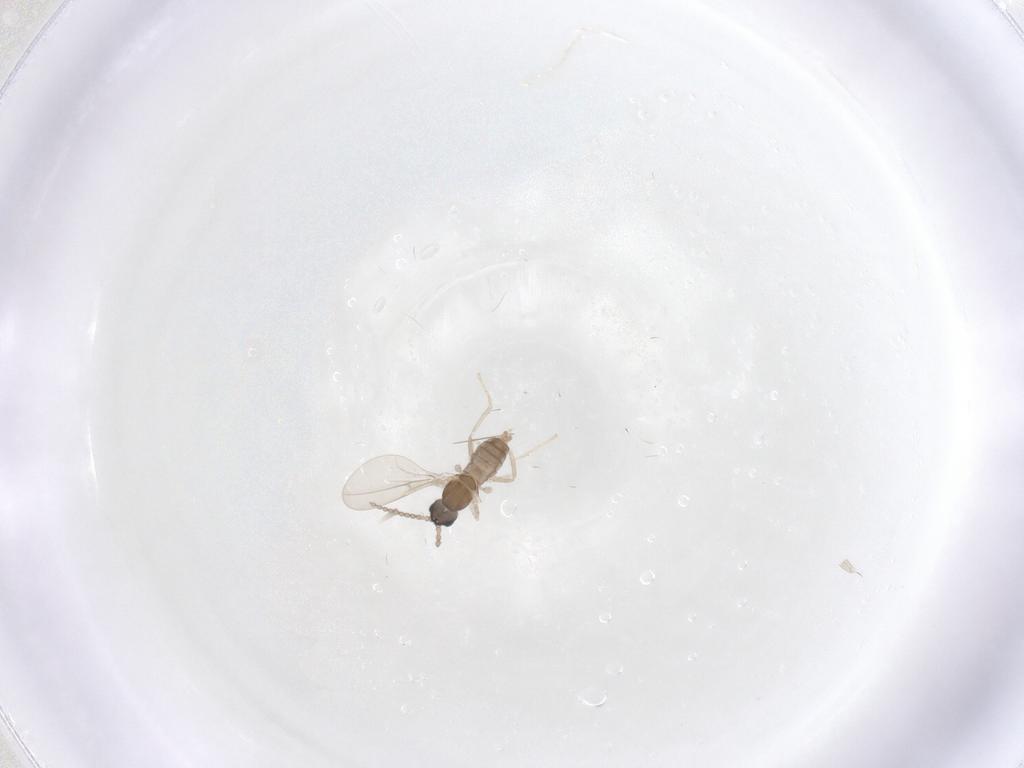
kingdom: Animalia
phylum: Arthropoda
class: Insecta
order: Diptera
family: Cecidomyiidae
